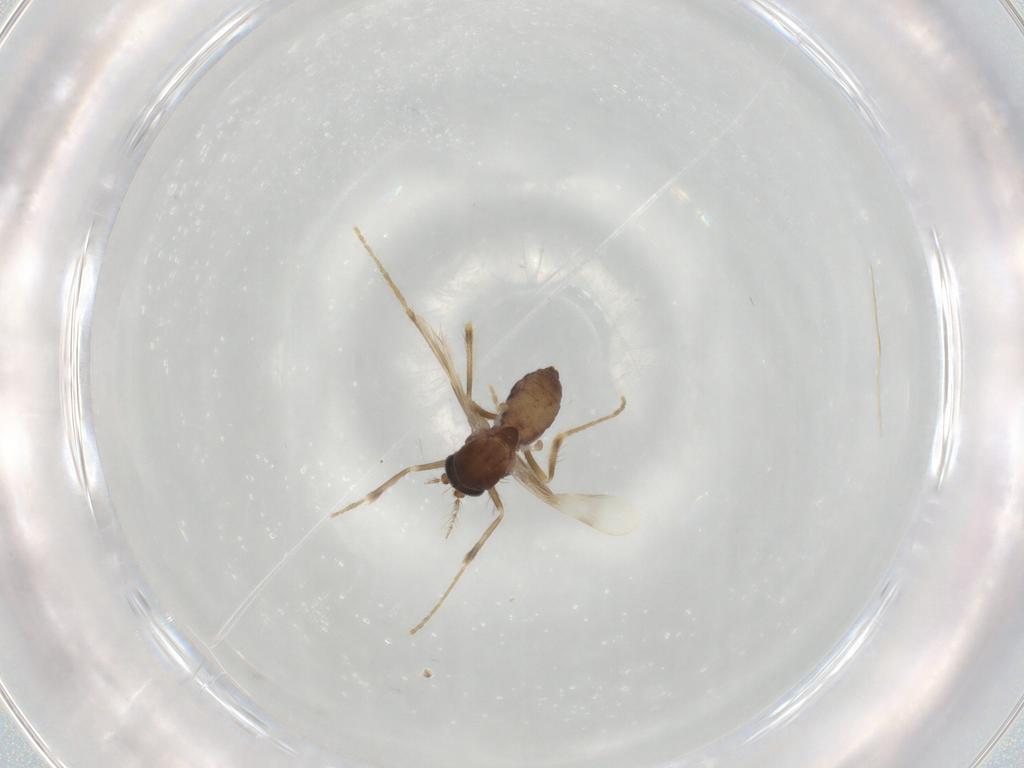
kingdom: Animalia
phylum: Arthropoda
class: Insecta
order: Diptera
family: Corethrellidae
